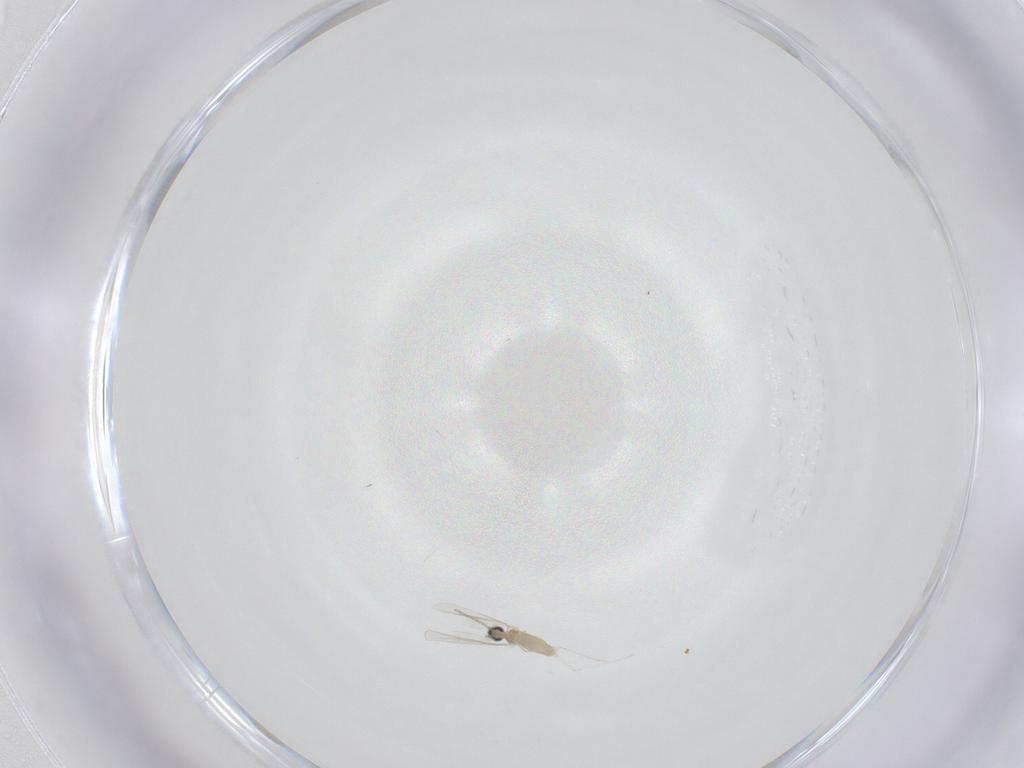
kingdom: Animalia
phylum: Arthropoda
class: Insecta
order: Diptera
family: Cecidomyiidae
